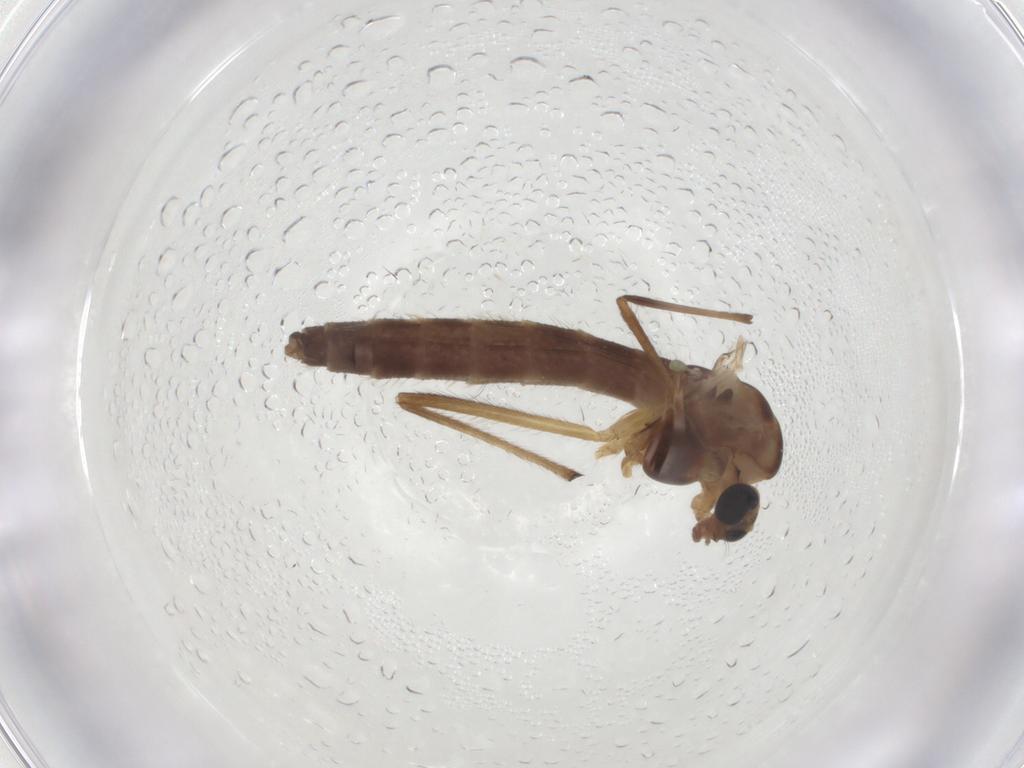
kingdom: Animalia
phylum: Arthropoda
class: Insecta
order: Diptera
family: Chironomidae
